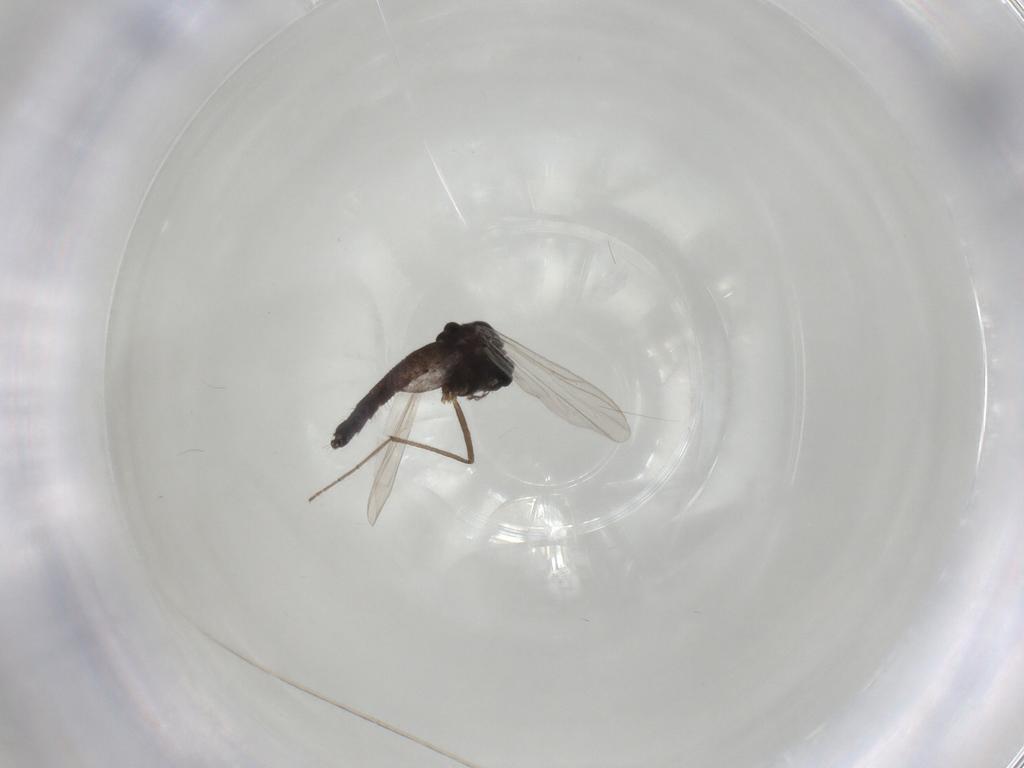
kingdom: Animalia
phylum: Arthropoda
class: Insecta
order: Diptera
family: Chironomidae
